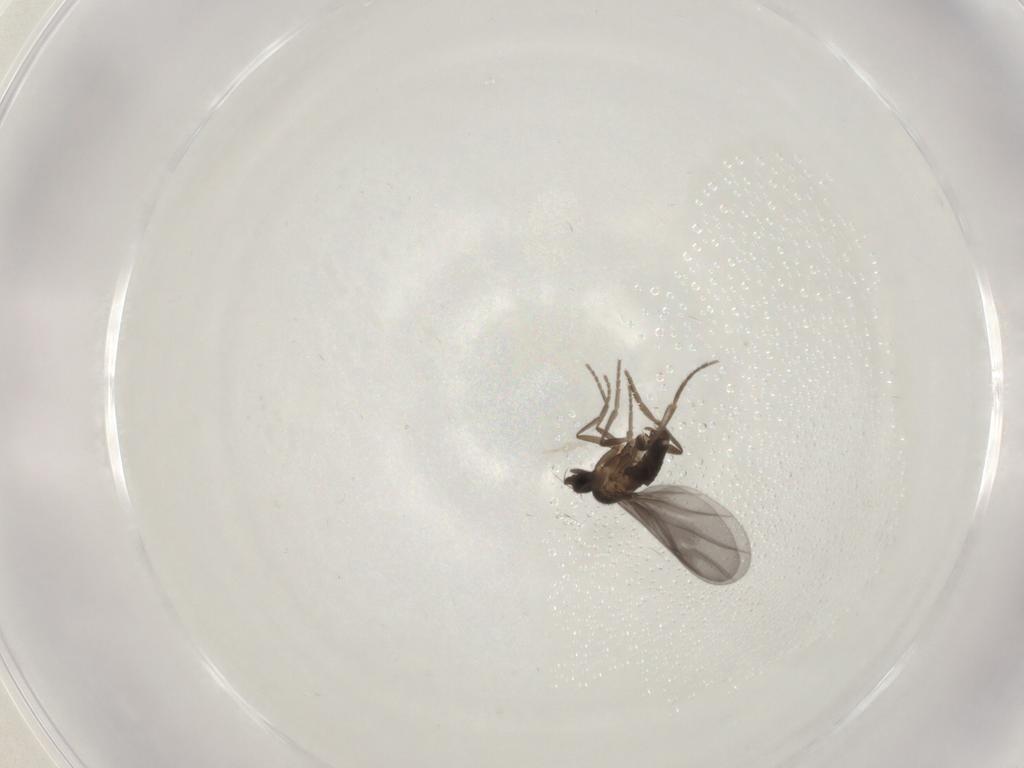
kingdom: Animalia
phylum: Arthropoda
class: Insecta
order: Diptera
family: Phoridae
